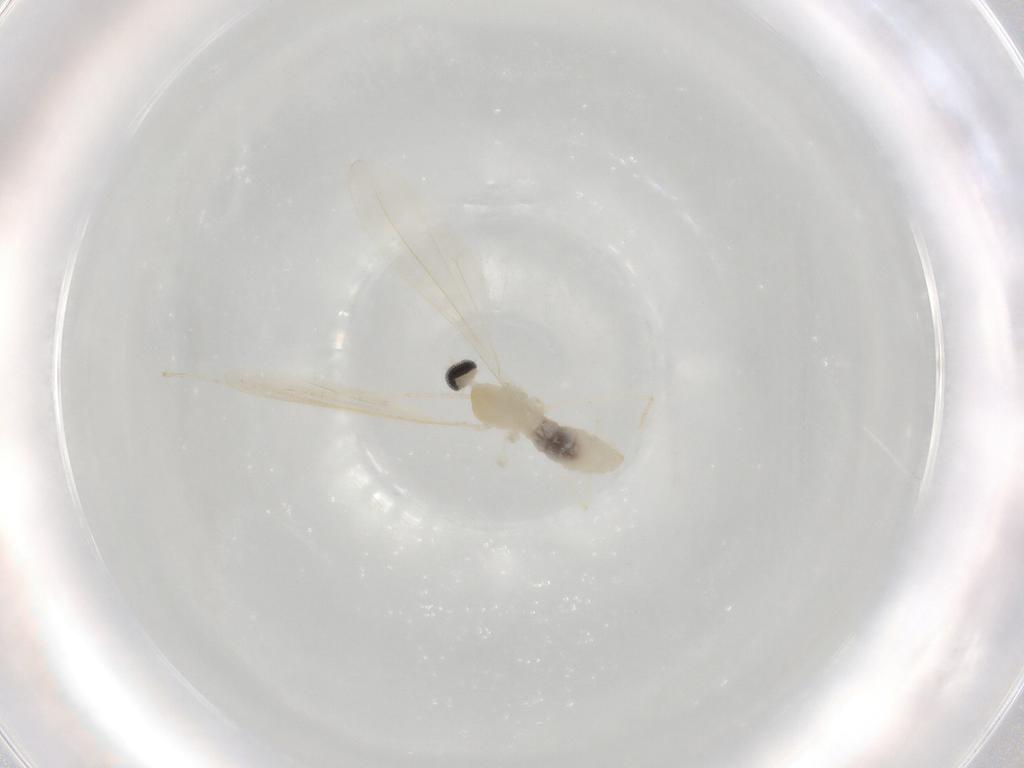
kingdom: Animalia
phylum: Arthropoda
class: Insecta
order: Diptera
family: Cecidomyiidae
